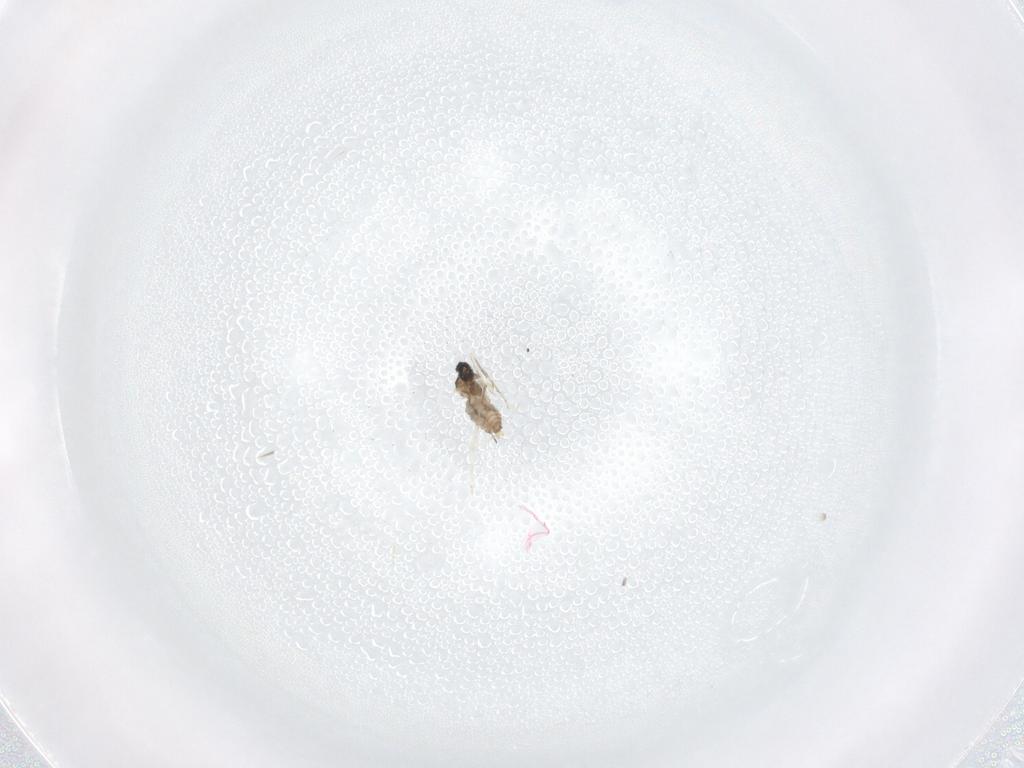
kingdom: Animalia
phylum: Arthropoda
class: Insecta
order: Diptera
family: Cecidomyiidae
